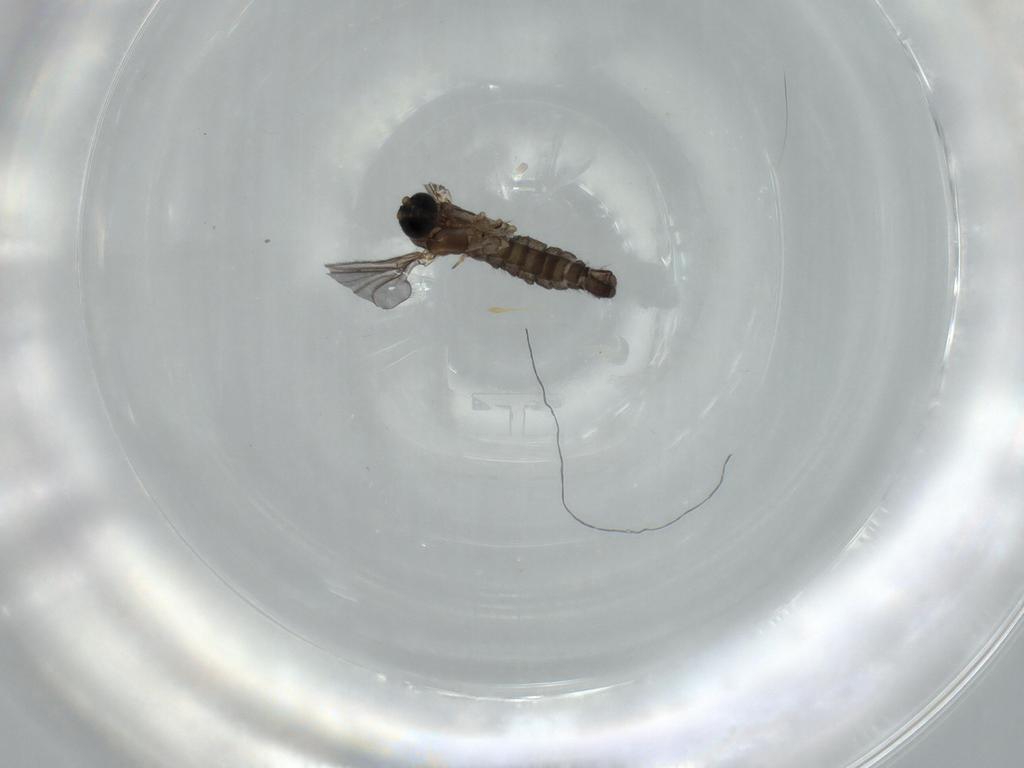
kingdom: Animalia
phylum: Arthropoda
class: Insecta
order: Diptera
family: Sciaridae
